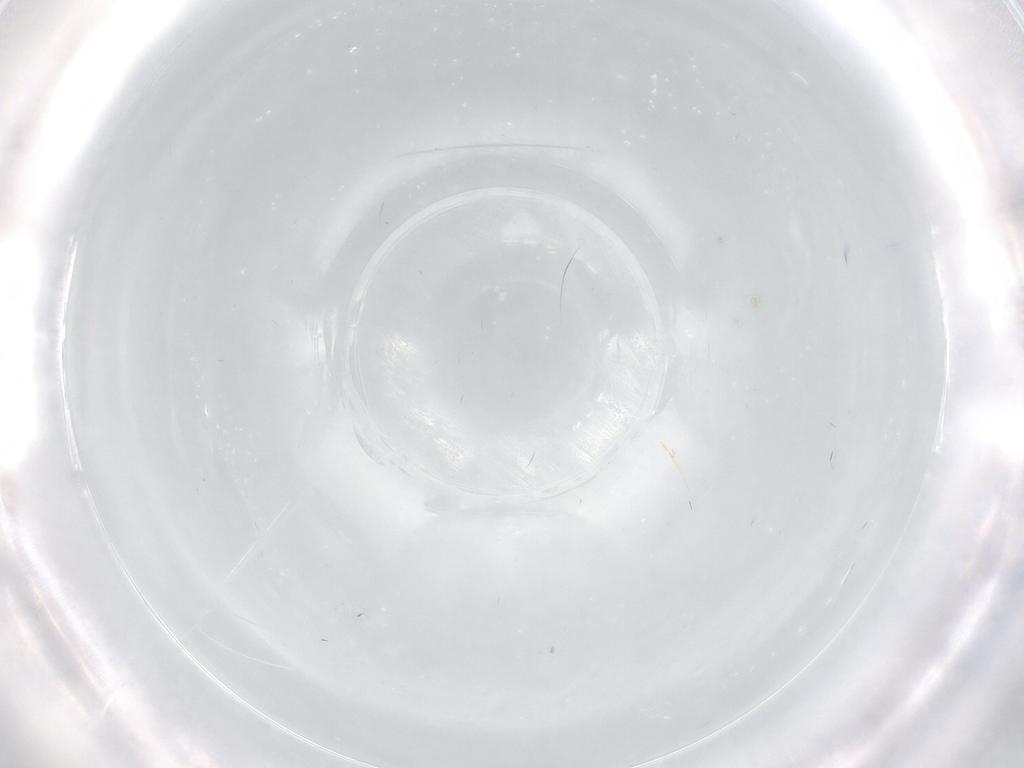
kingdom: Animalia
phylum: Arthropoda
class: Insecta
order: Diptera
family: Cecidomyiidae
